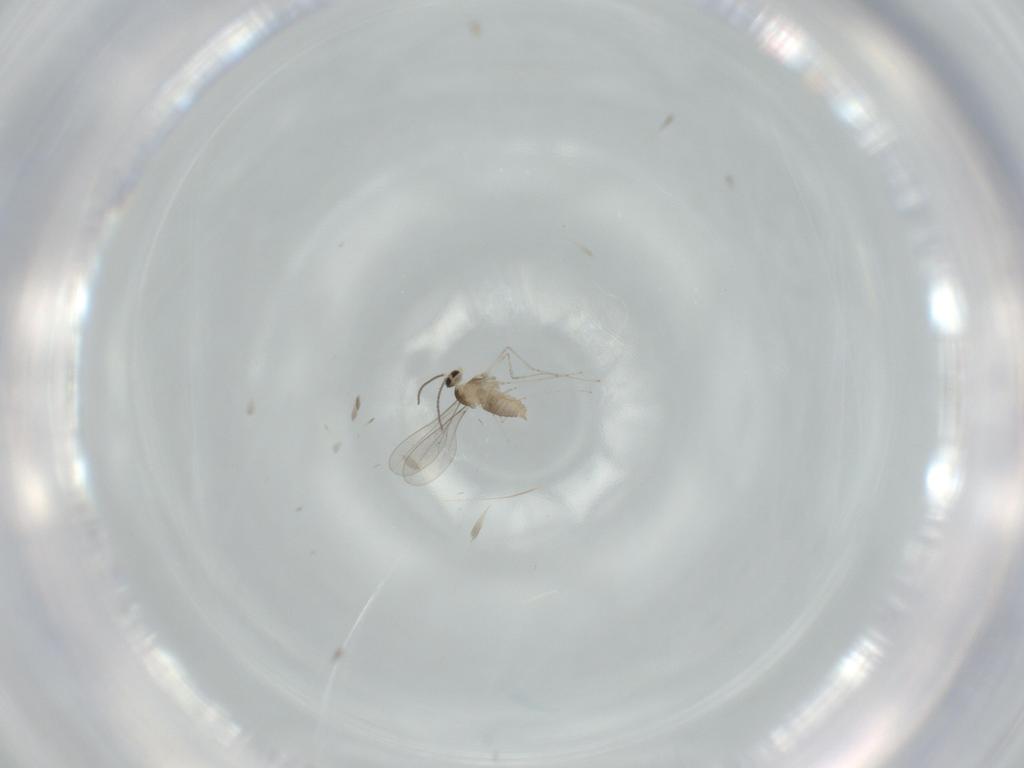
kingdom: Animalia
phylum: Arthropoda
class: Insecta
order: Diptera
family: Cecidomyiidae
